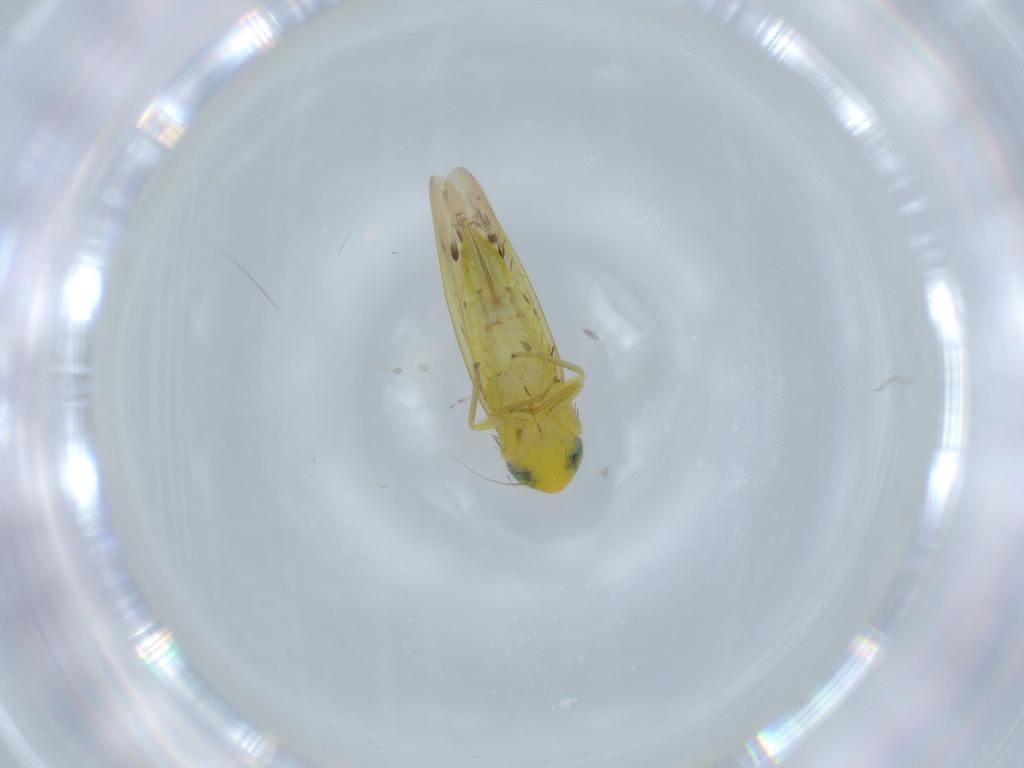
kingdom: Animalia
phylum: Arthropoda
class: Insecta
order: Hemiptera
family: Cicadellidae
